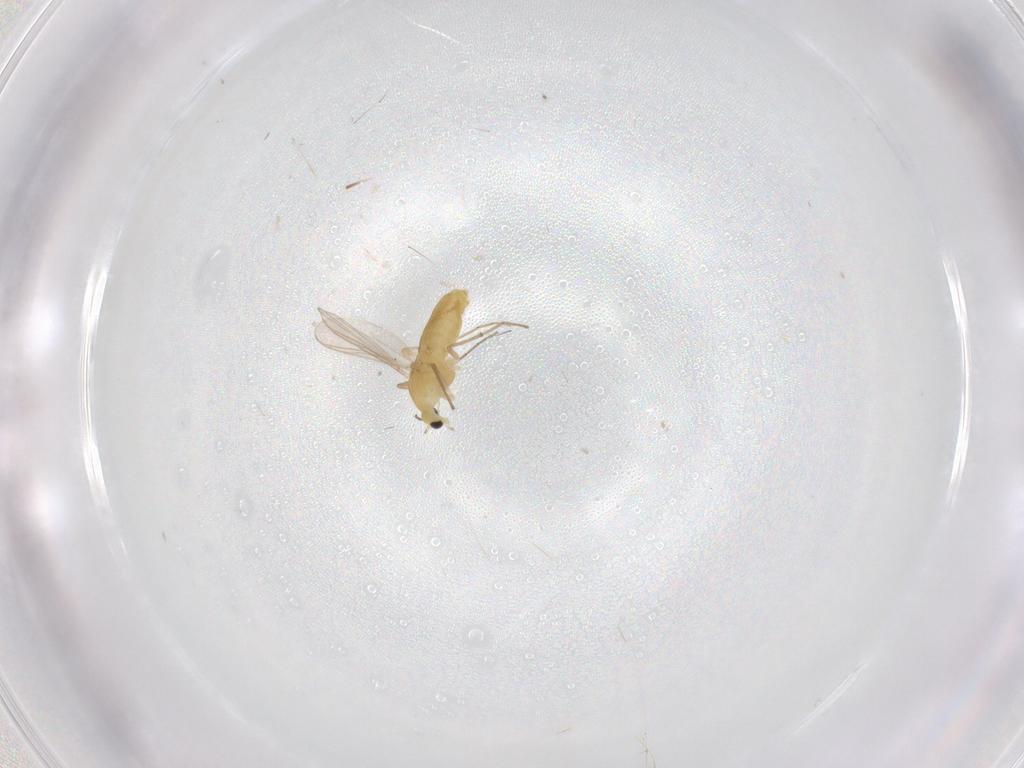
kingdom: Animalia
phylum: Arthropoda
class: Insecta
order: Diptera
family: Chironomidae
